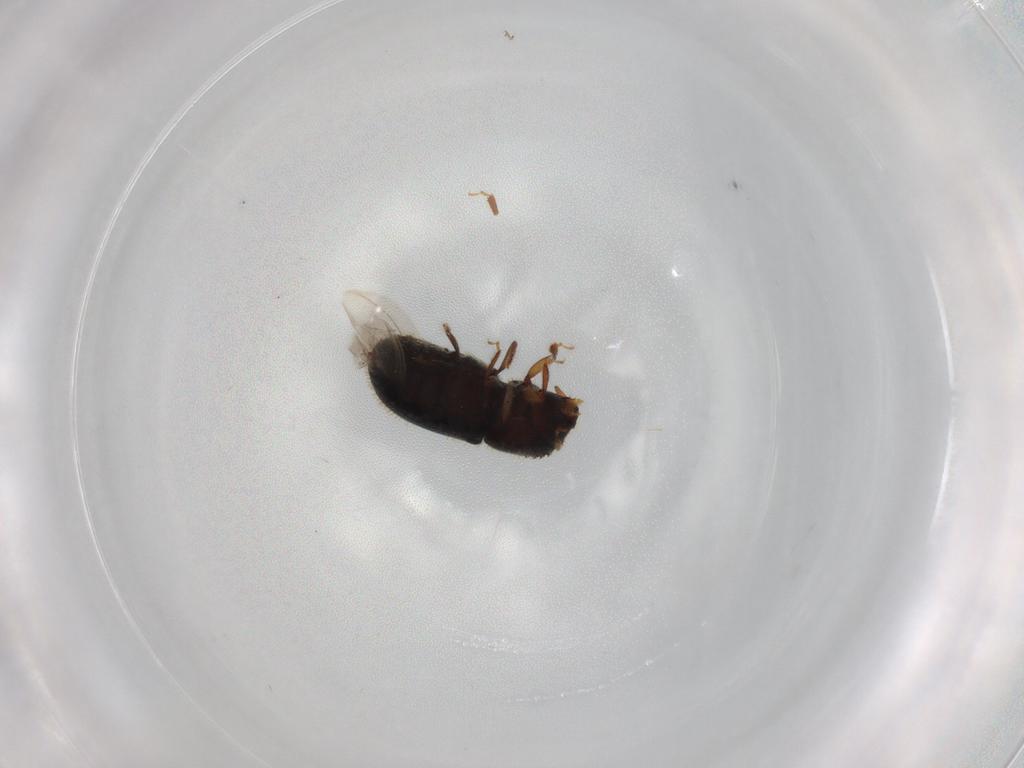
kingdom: Animalia
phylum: Arthropoda
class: Insecta
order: Coleoptera
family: Curculionidae
